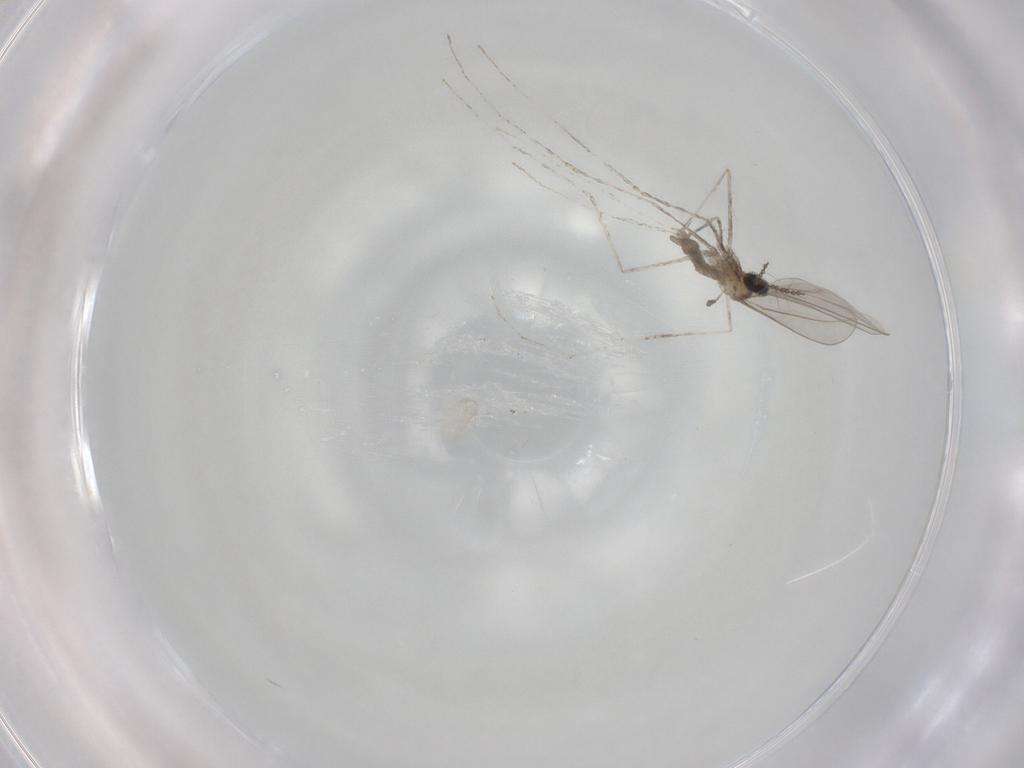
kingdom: Animalia
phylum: Arthropoda
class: Insecta
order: Diptera
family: Cecidomyiidae
